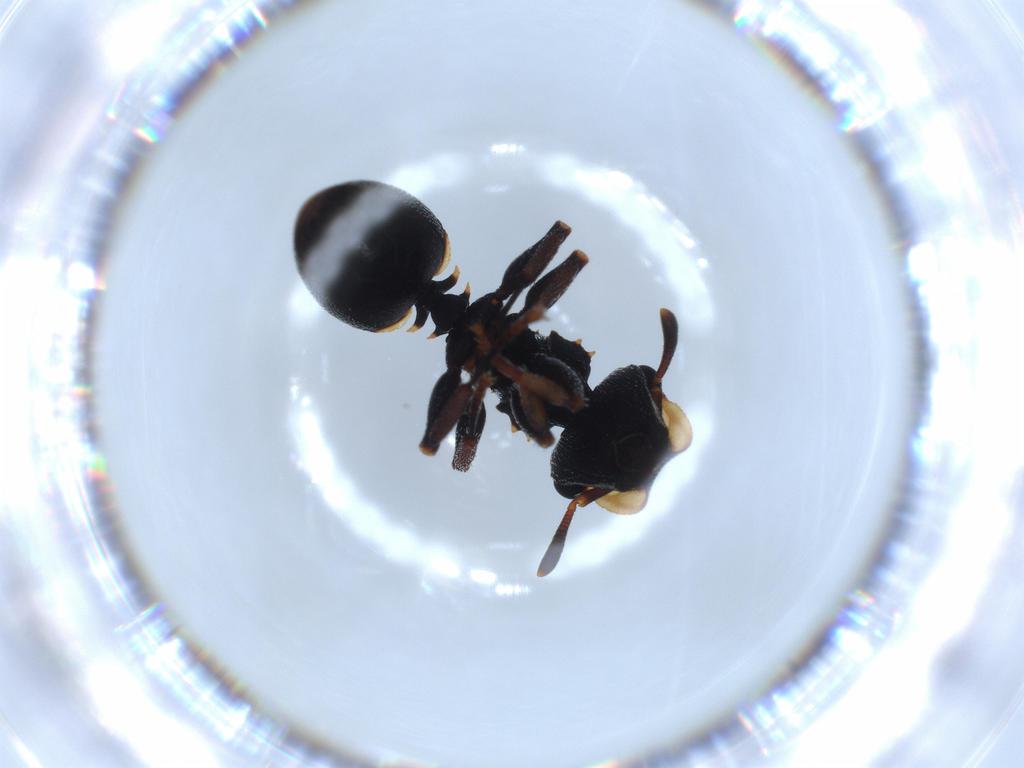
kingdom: Animalia
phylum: Arthropoda
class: Insecta
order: Hymenoptera
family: Formicidae
